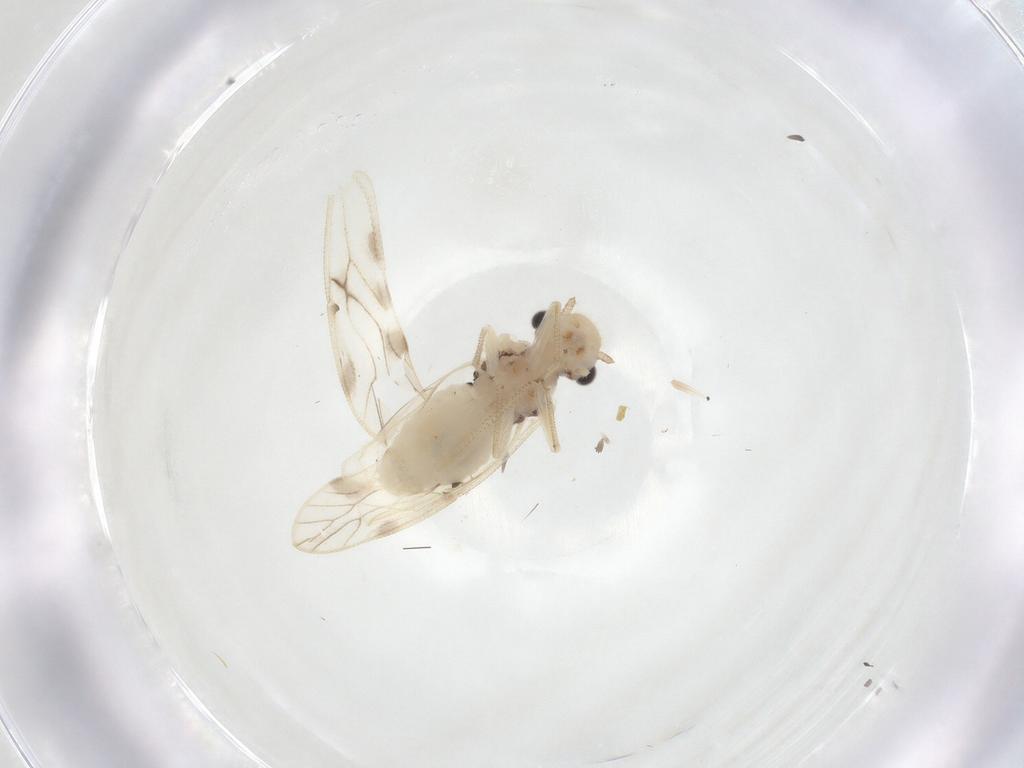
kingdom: Animalia
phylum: Arthropoda
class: Insecta
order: Psocodea
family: Caeciliusidae
